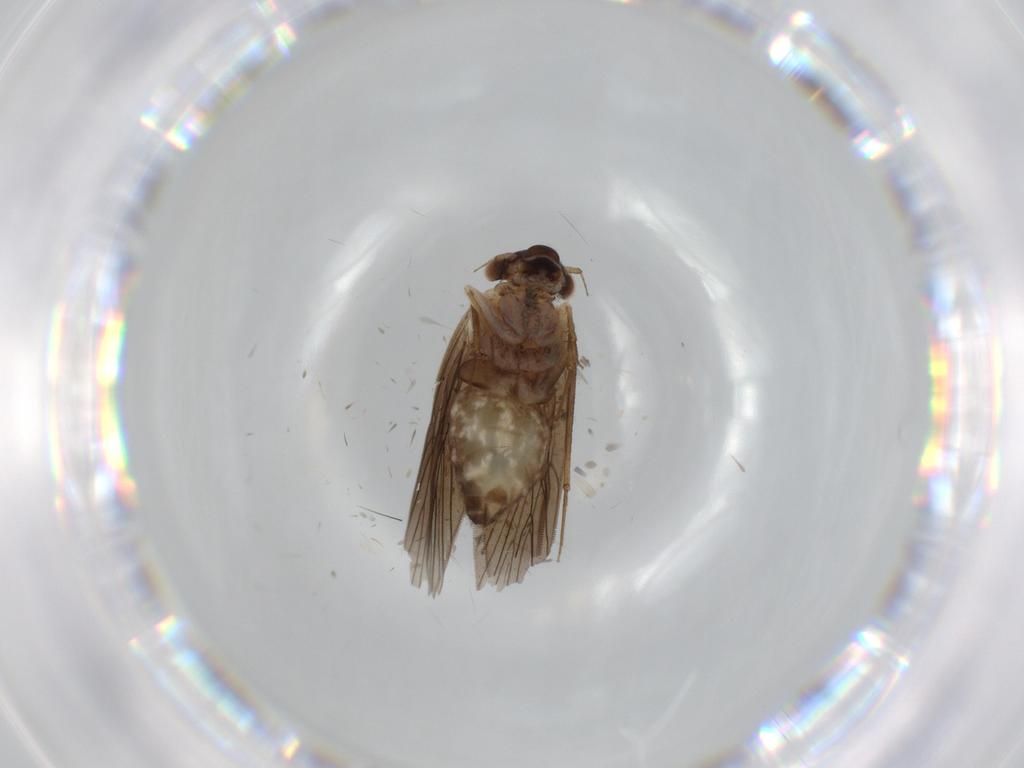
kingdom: Animalia
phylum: Arthropoda
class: Insecta
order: Psocodea
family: Lepidopsocidae
